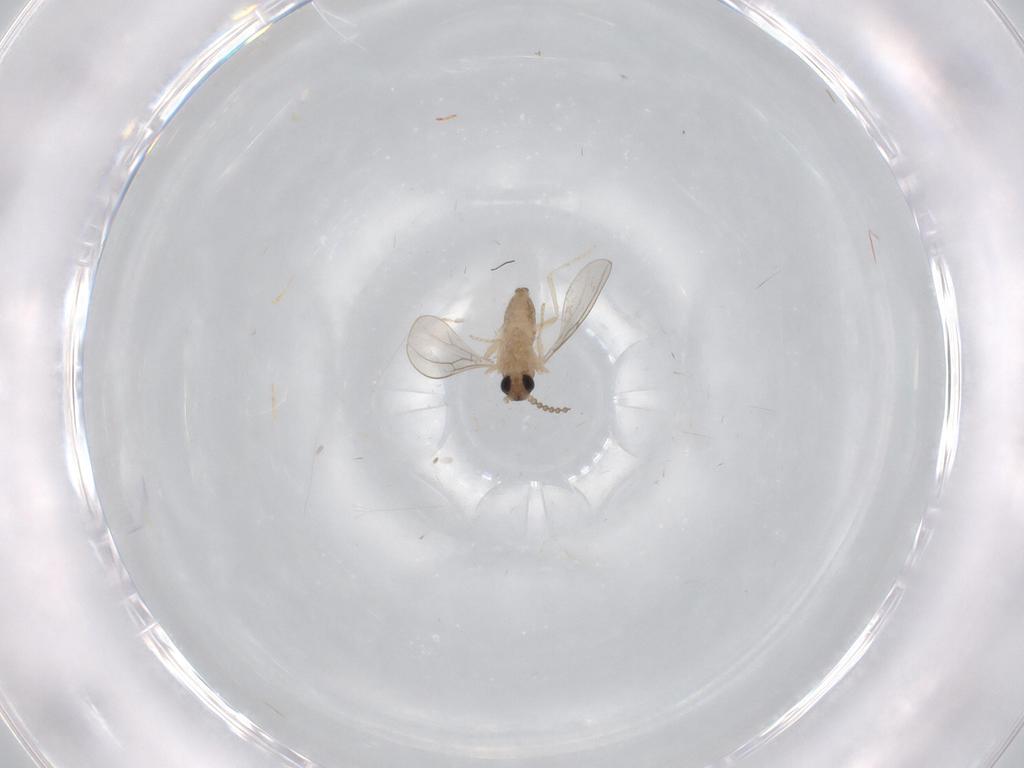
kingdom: Animalia
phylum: Arthropoda
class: Insecta
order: Diptera
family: Cecidomyiidae
